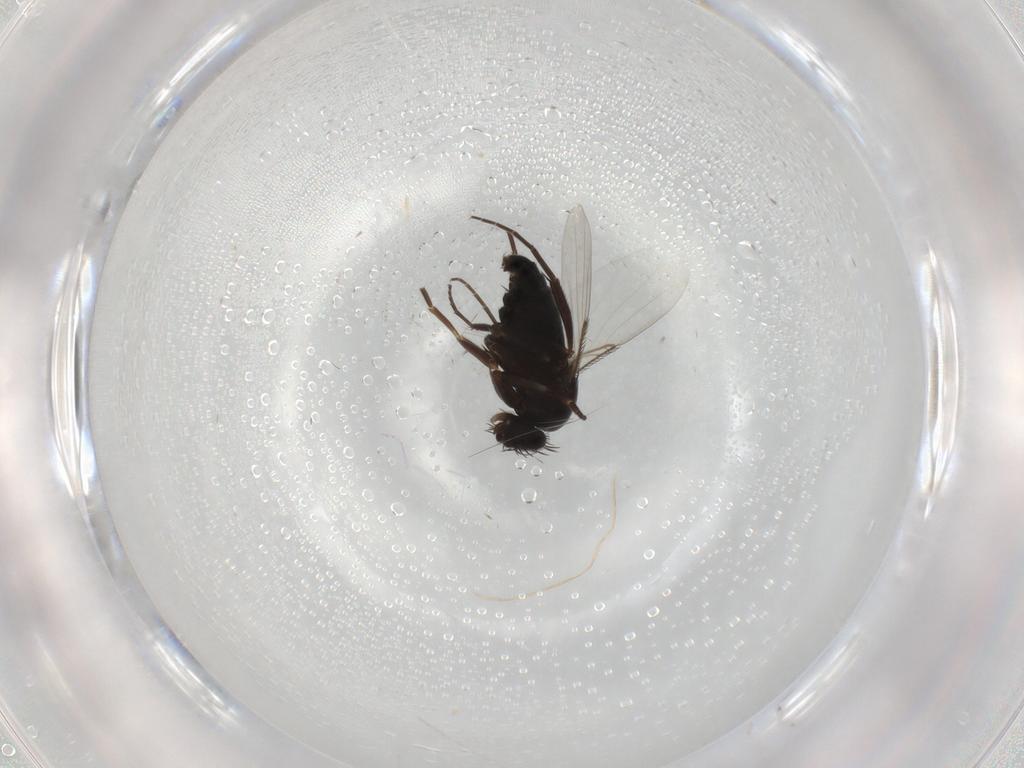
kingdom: Animalia
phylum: Arthropoda
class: Insecta
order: Diptera
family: Phoridae
